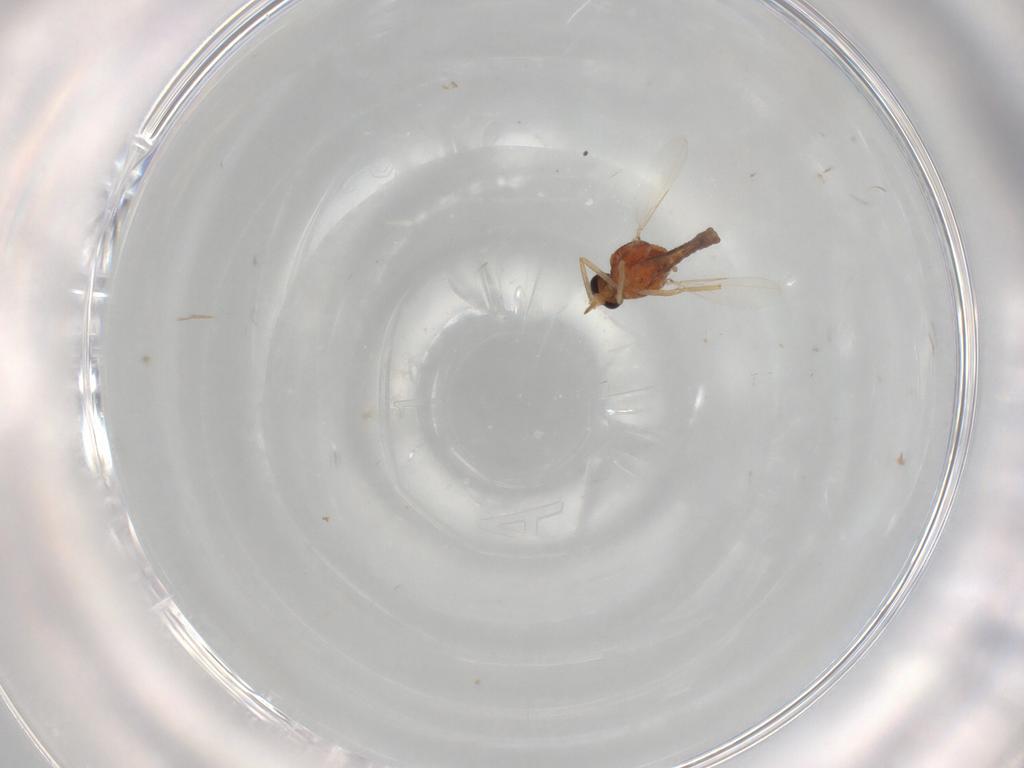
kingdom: Animalia
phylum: Arthropoda
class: Insecta
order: Diptera
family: Ceratopogonidae
